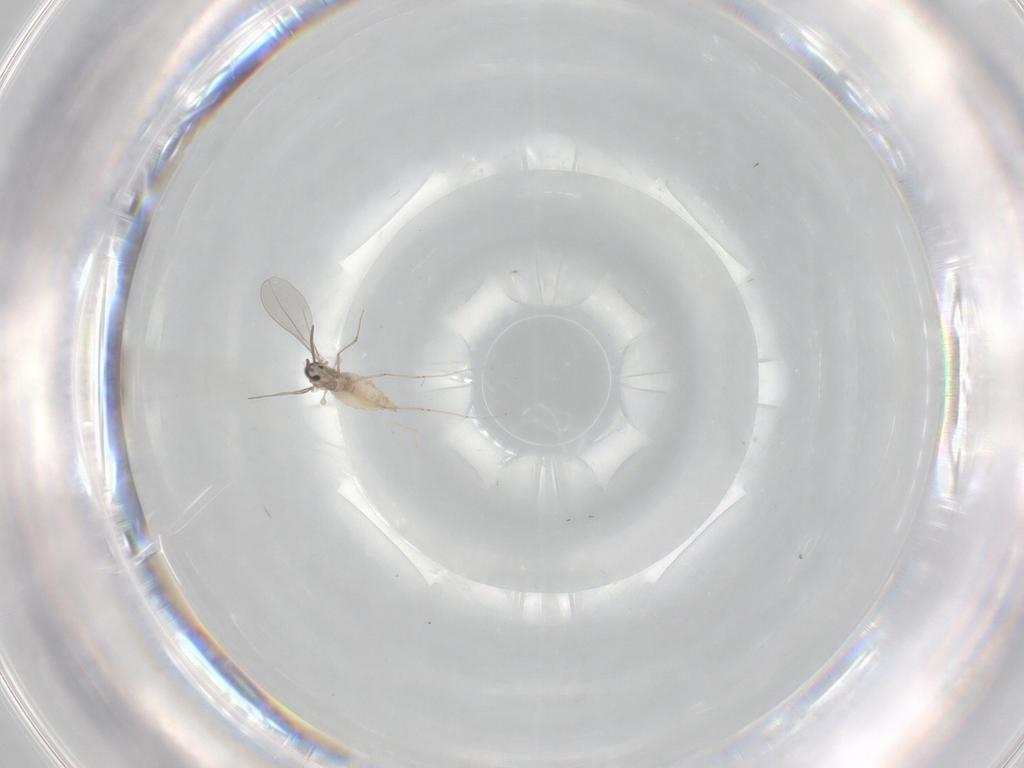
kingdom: Animalia
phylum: Arthropoda
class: Insecta
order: Diptera
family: Cecidomyiidae
